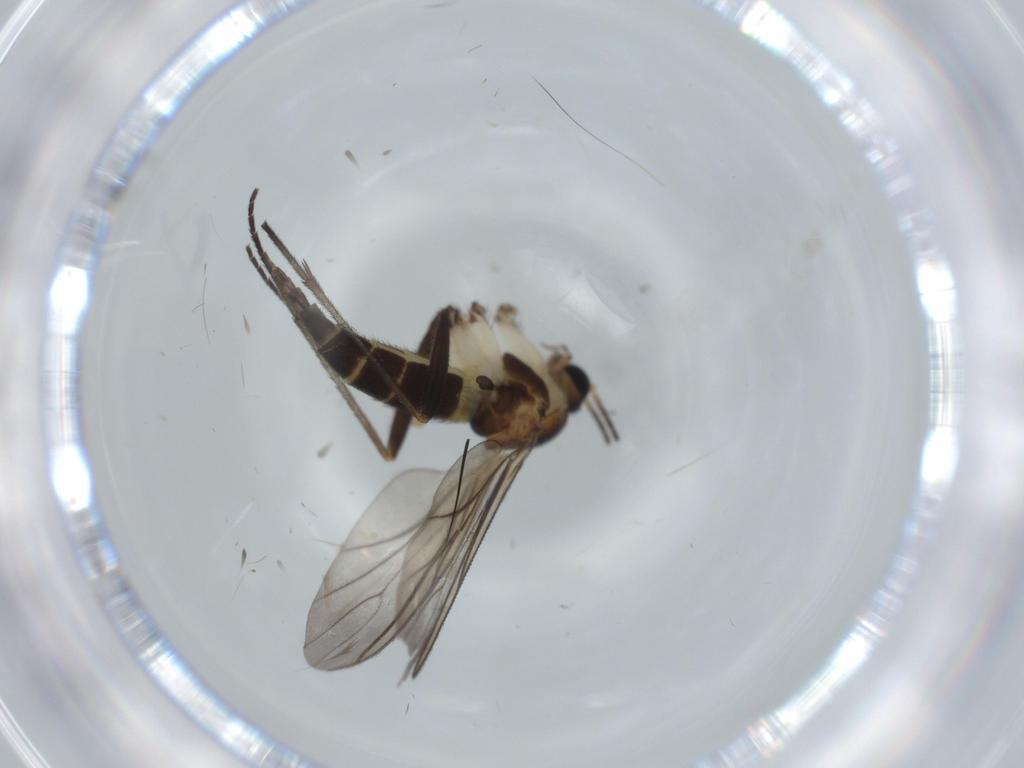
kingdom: Animalia
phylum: Arthropoda
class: Insecta
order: Diptera
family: Sciaridae
